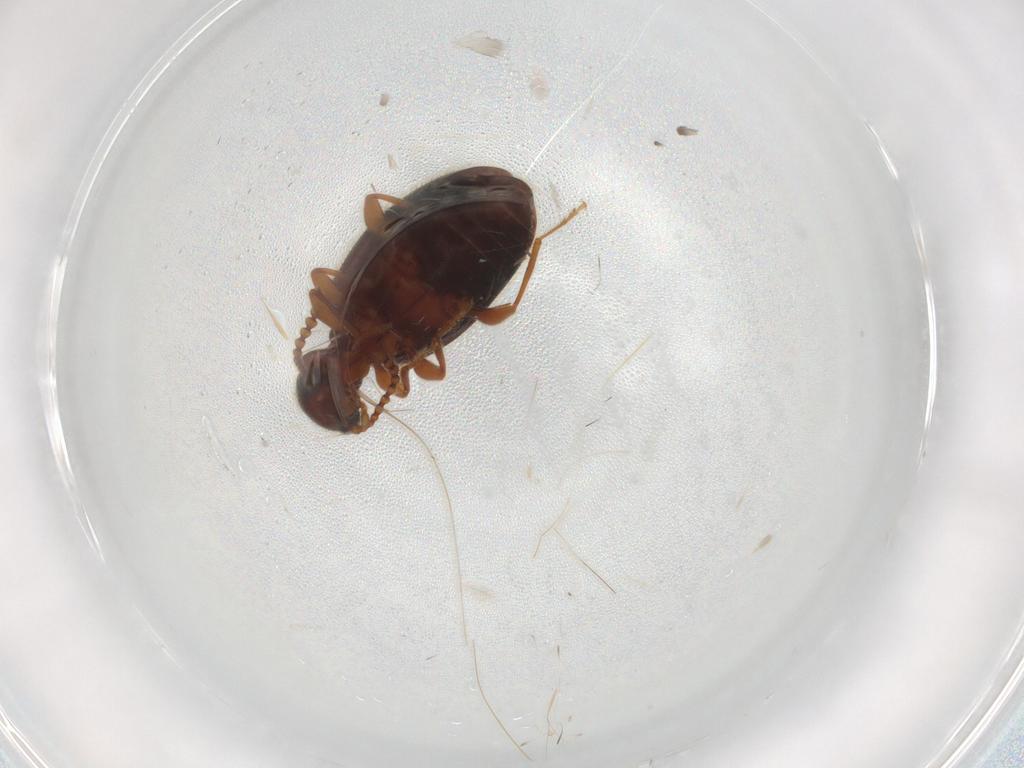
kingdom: Animalia
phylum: Arthropoda
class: Insecta
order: Coleoptera
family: Anthicidae
